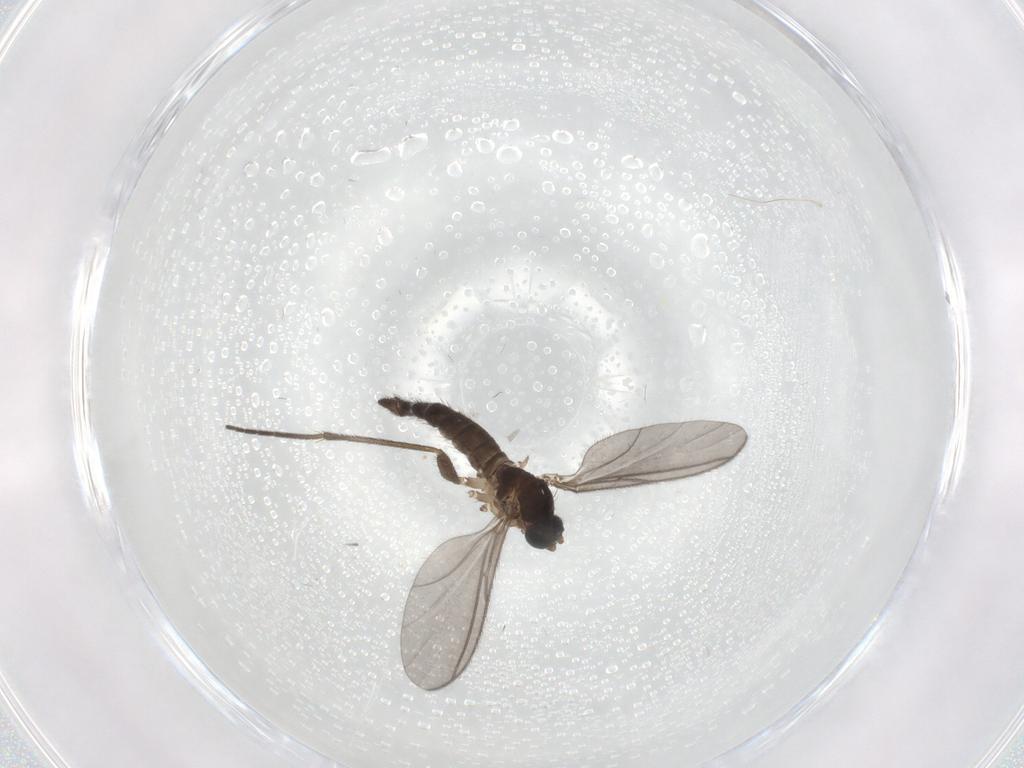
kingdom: Animalia
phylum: Arthropoda
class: Insecta
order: Diptera
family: Sciaridae
